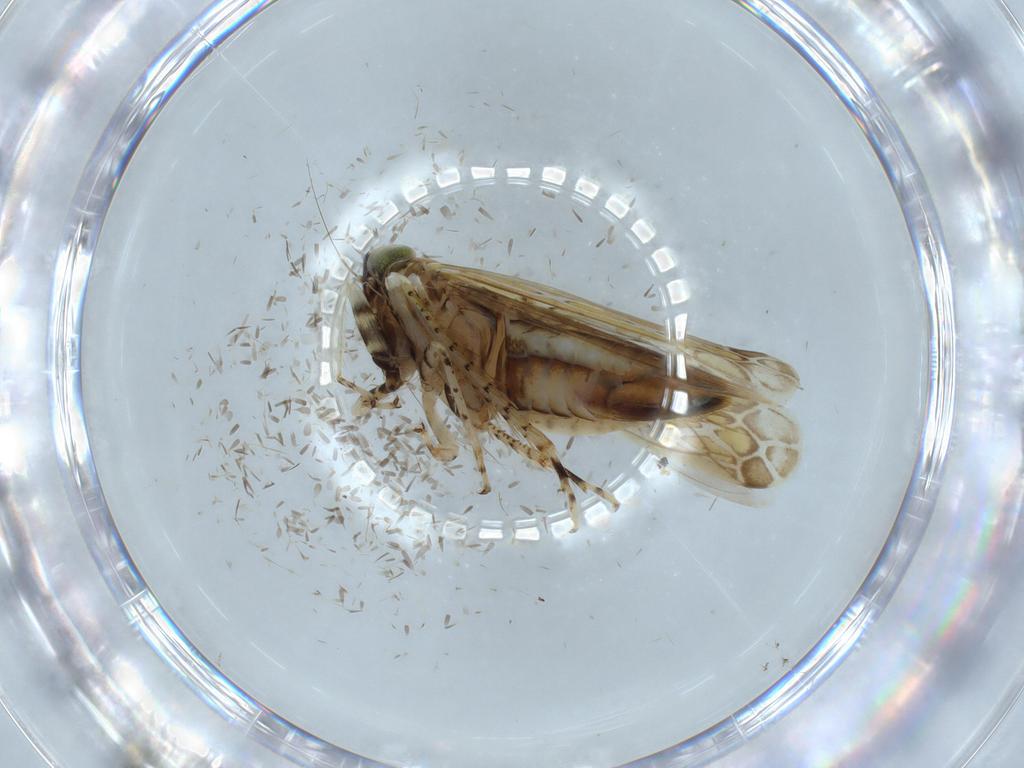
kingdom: Animalia
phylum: Arthropoda
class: Insecta
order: Hemiptera
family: Cicadellidae
